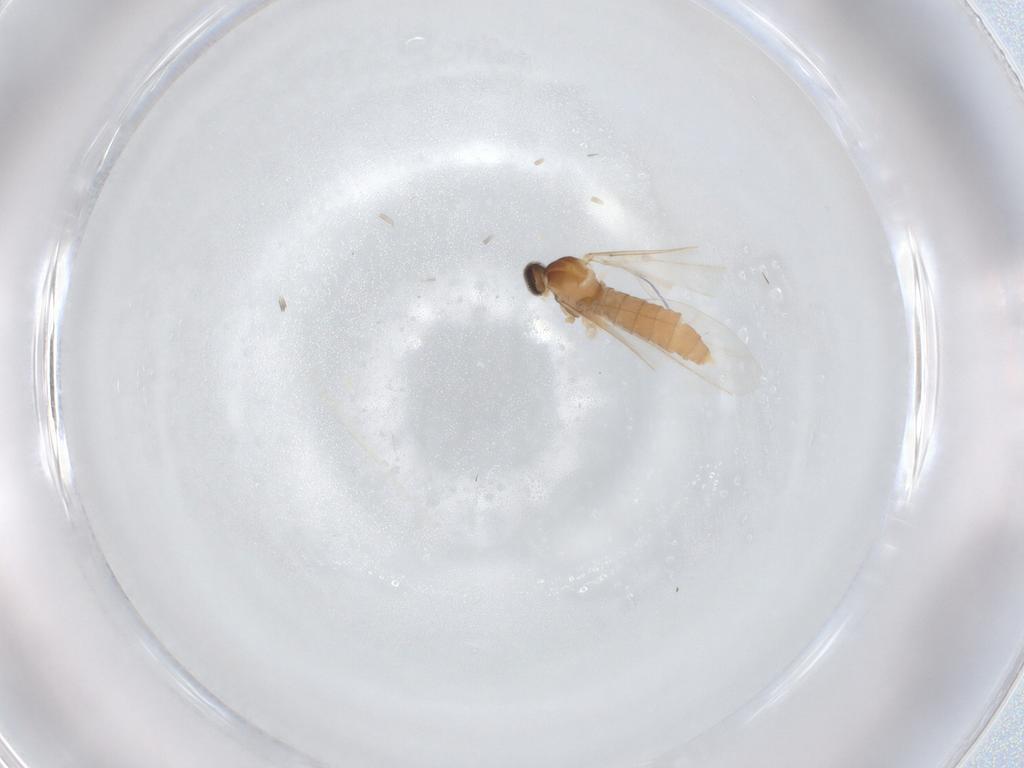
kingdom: Animalia
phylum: Arthropoda
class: Insecta
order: Diptera
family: Cecidomyiidae
